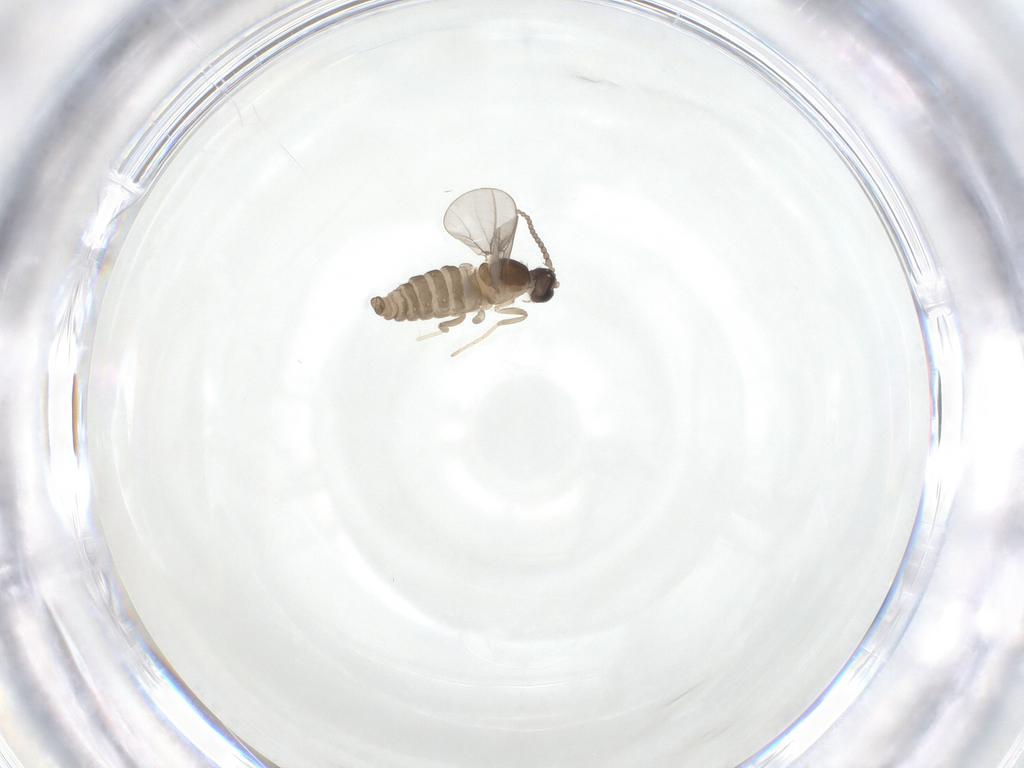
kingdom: Animalia
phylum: Arthropoda
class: Insecta
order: Diptera
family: Cecidomyiidae
